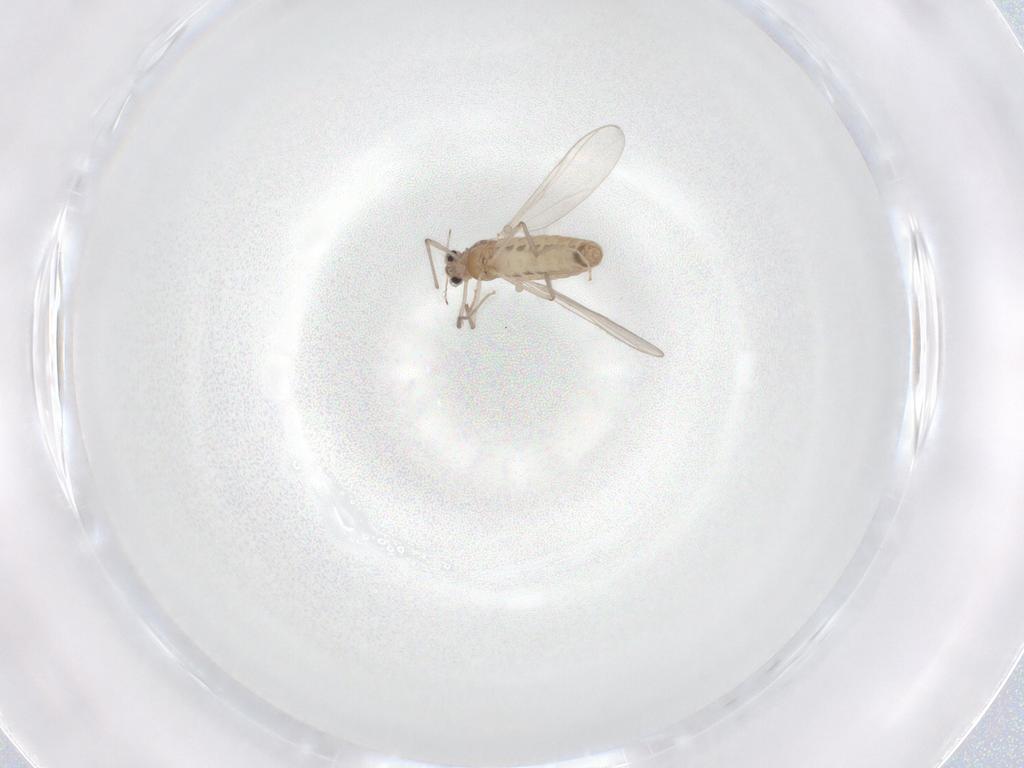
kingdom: Animalia
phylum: Arthropoda
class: Insecta
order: Diptera
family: Chironomidae
